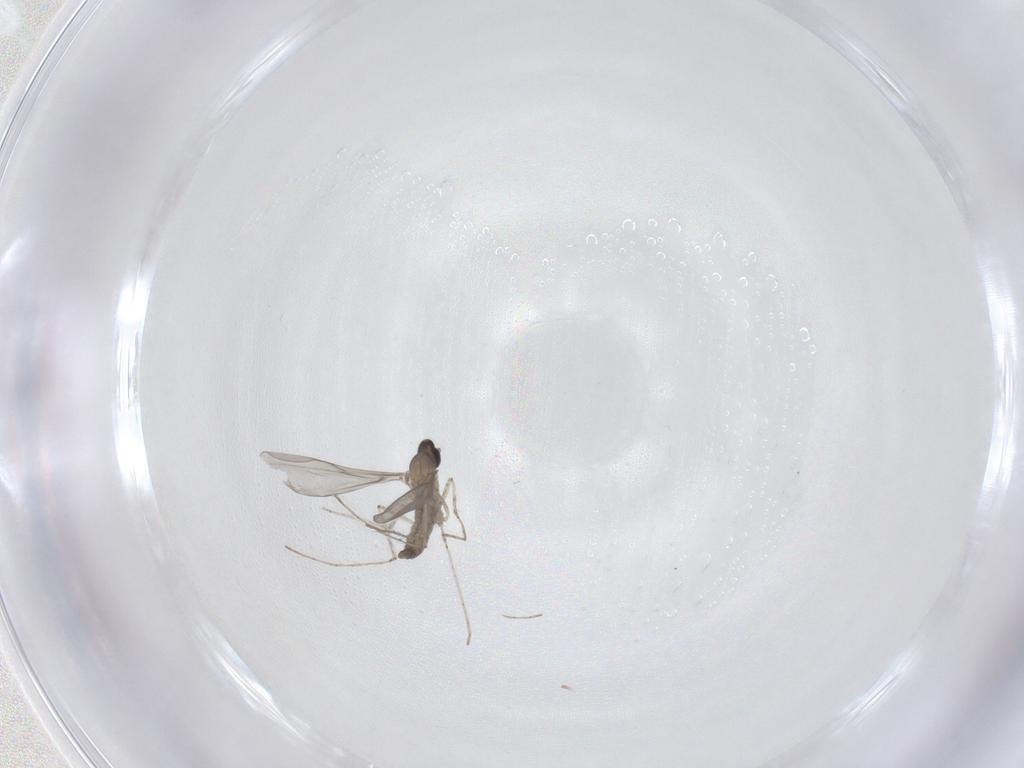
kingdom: Animalia
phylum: Arthropoda
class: Insecta
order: Diptera
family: Cecidomyiidae
